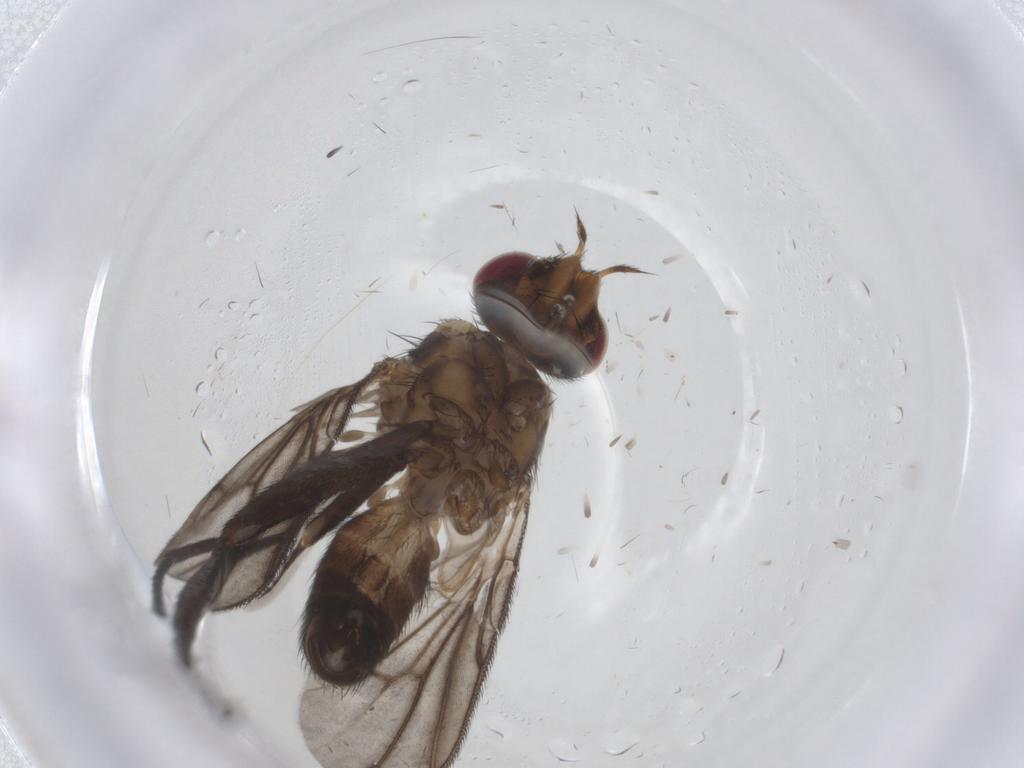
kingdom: Animalia
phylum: Arthropoda
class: Insecta
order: Diptera
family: Calliphoridae
